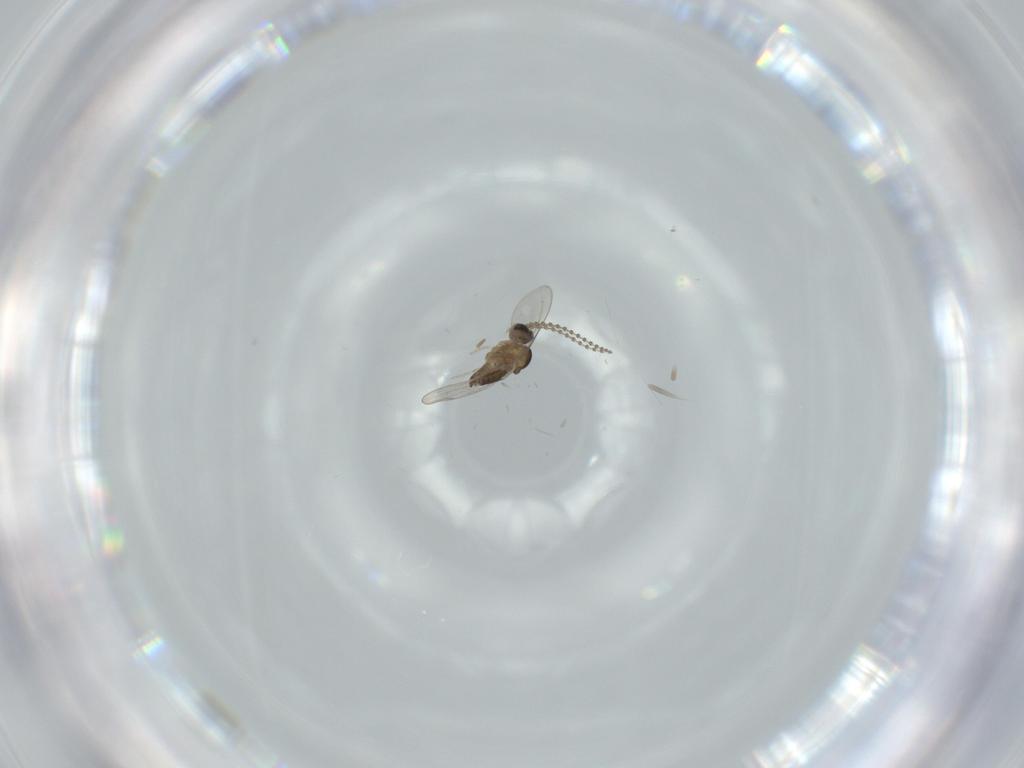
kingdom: Animalia
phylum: Arthropoda
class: Insecta
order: Diptera
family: Cecidomyiidae
